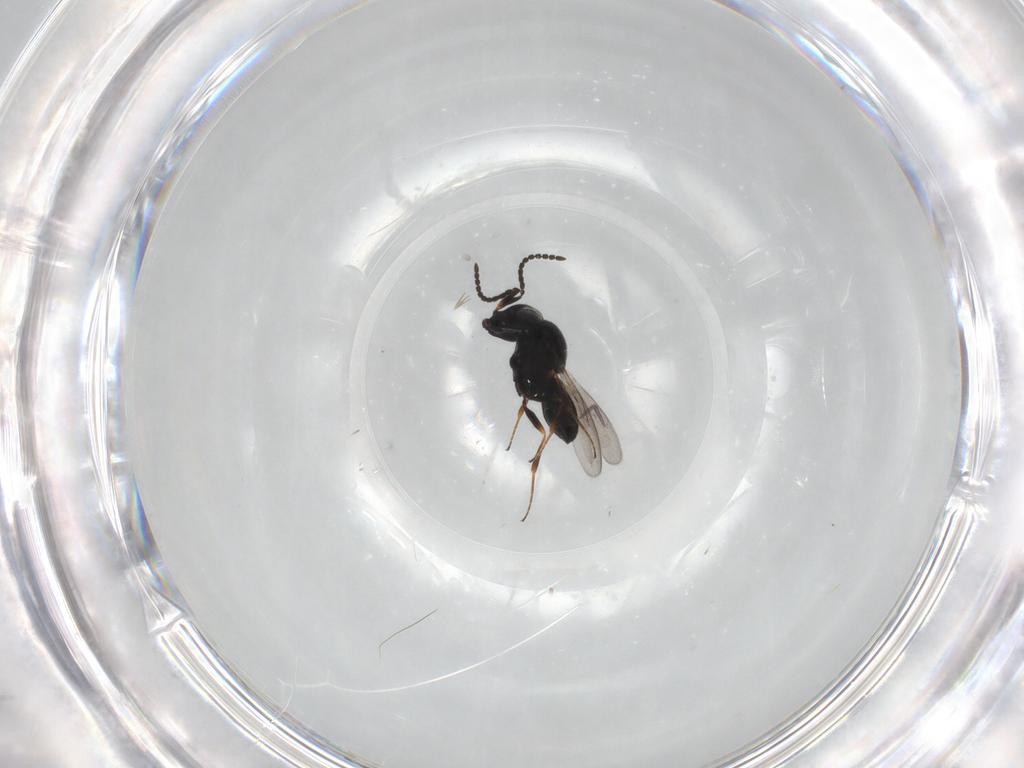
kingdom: Animalia
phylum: Arthropoda
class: Insecta
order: Hymenoptera
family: Scelionidae
